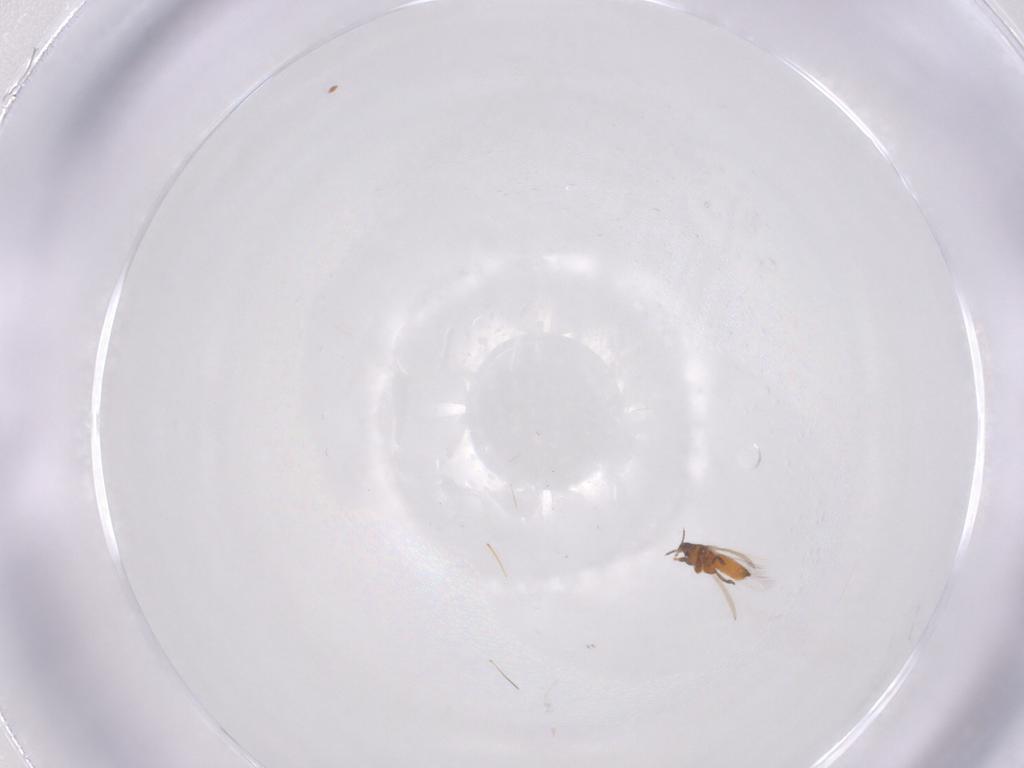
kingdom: Animalia
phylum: Arthropoda
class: Insecta
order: Thysanoptera
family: Thripidae
